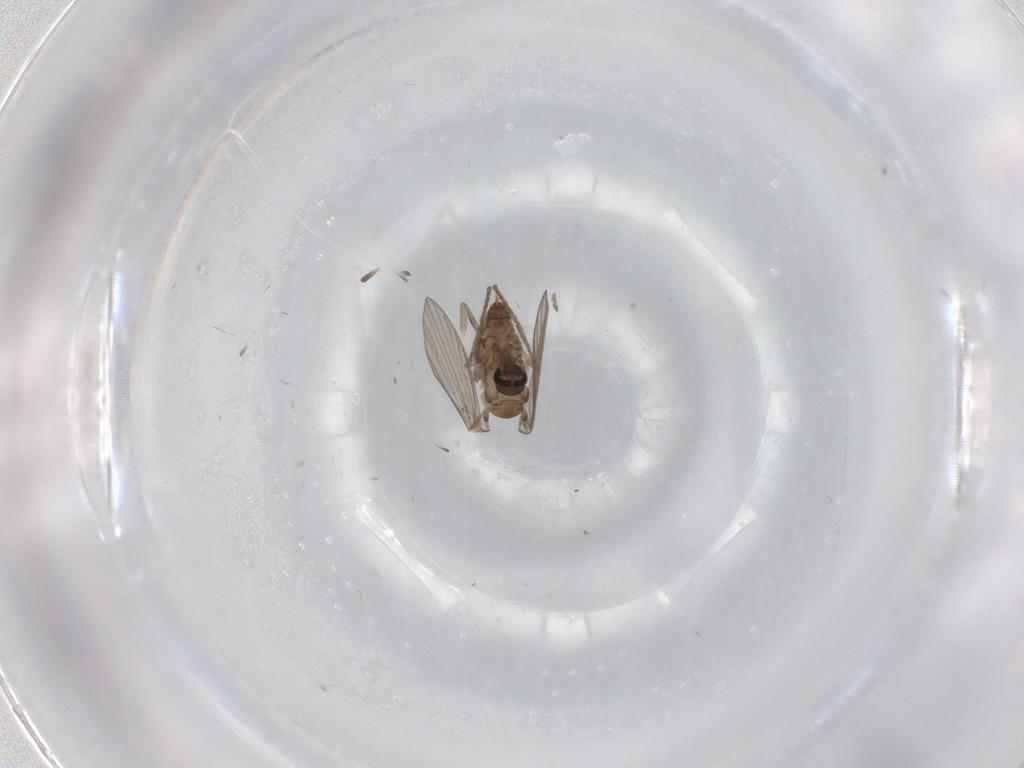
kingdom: Animalia
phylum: Arthropoda
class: Insecta
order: Diptera
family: Psychodidae
